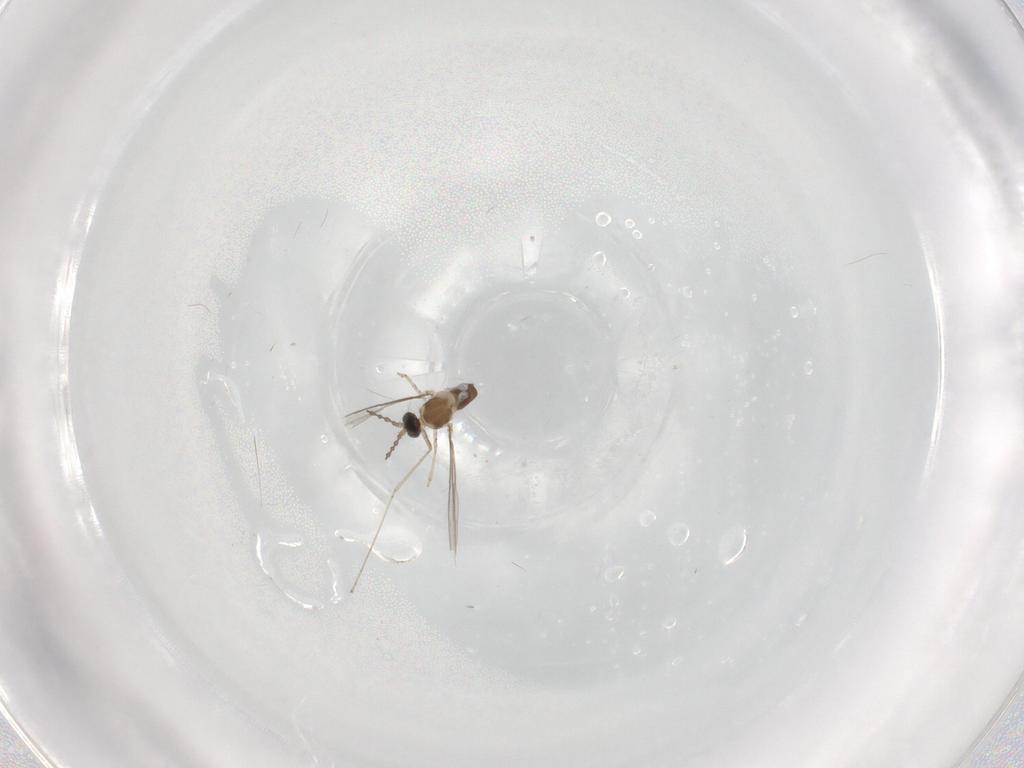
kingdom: Animalia
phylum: Arthropoda
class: Insecta
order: Diptera
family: Cecidomyiidae
